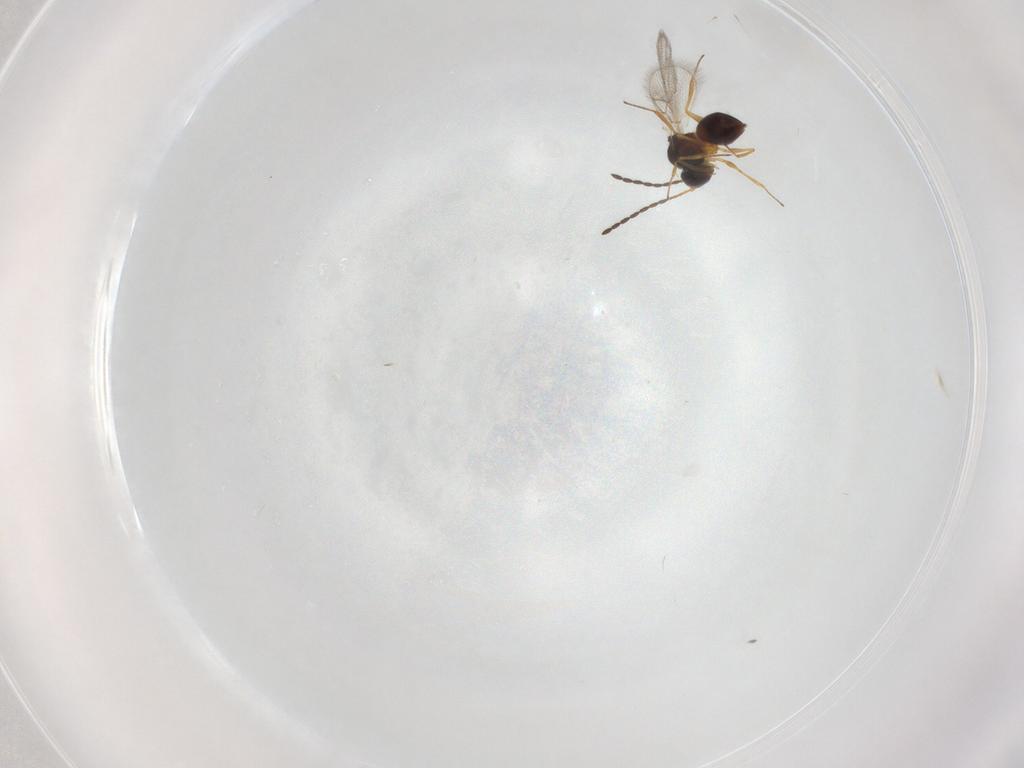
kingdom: Animalia
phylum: Arthropoda
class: Insecta
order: Hymenoptera
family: Figitidae
